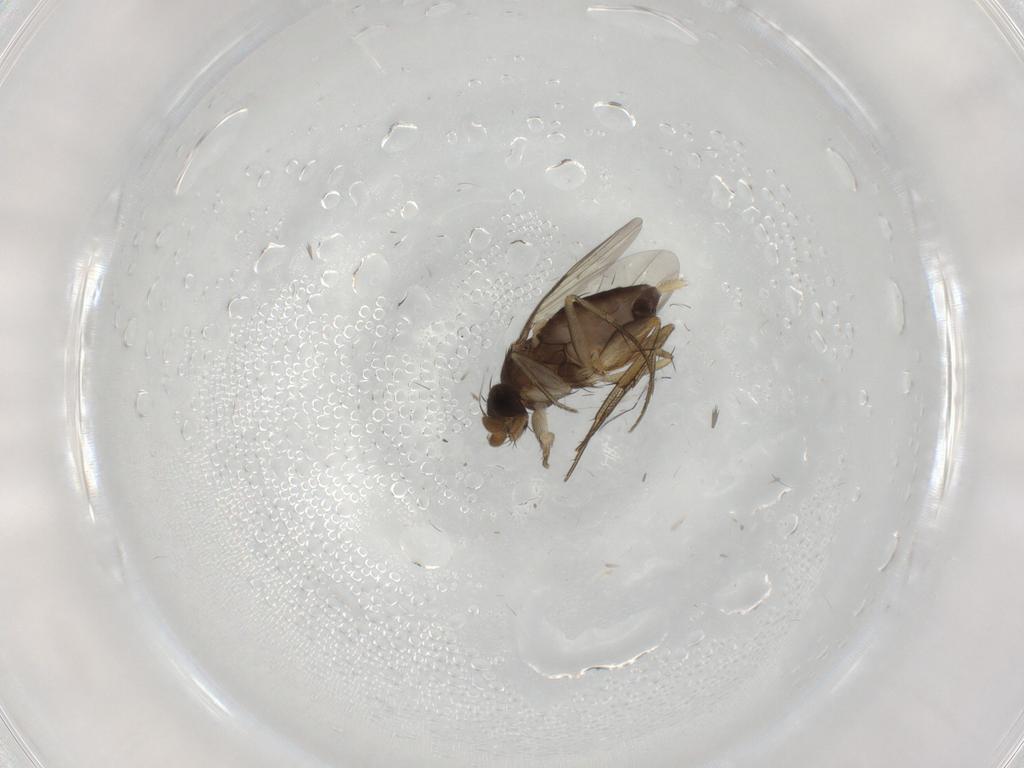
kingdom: Animalia
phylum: Arthropoda
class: Insecta
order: Diptera
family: Phoridae
